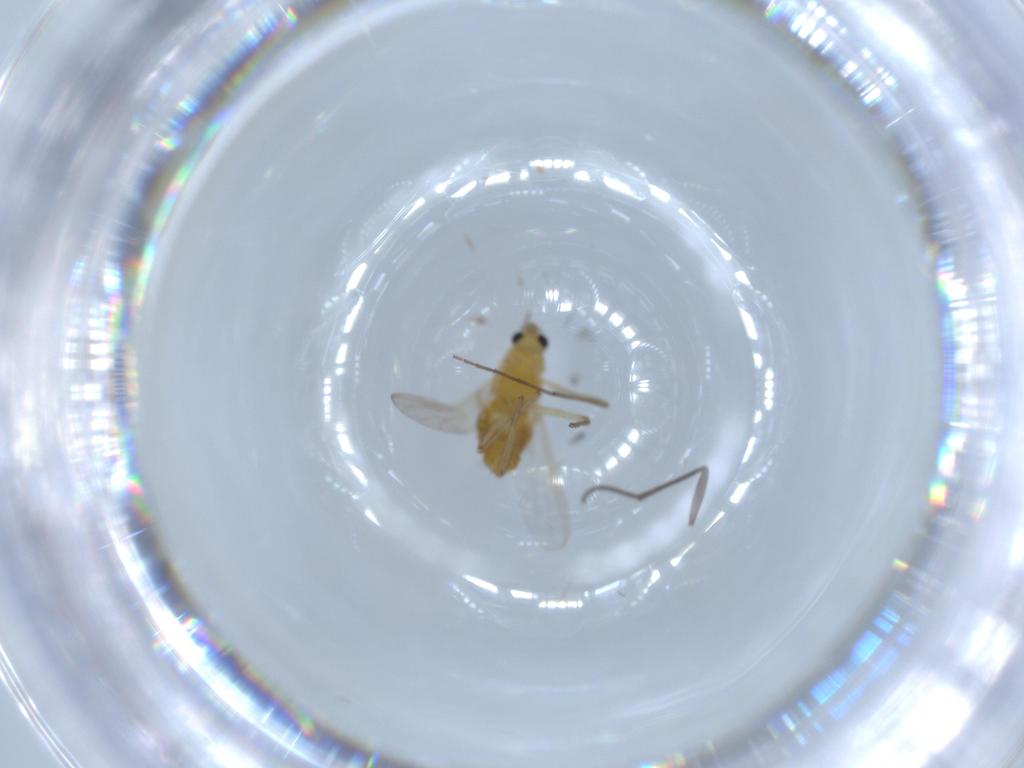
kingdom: Animalia
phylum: Arthropoda
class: Insecta
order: Diptera
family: Chironomidae
